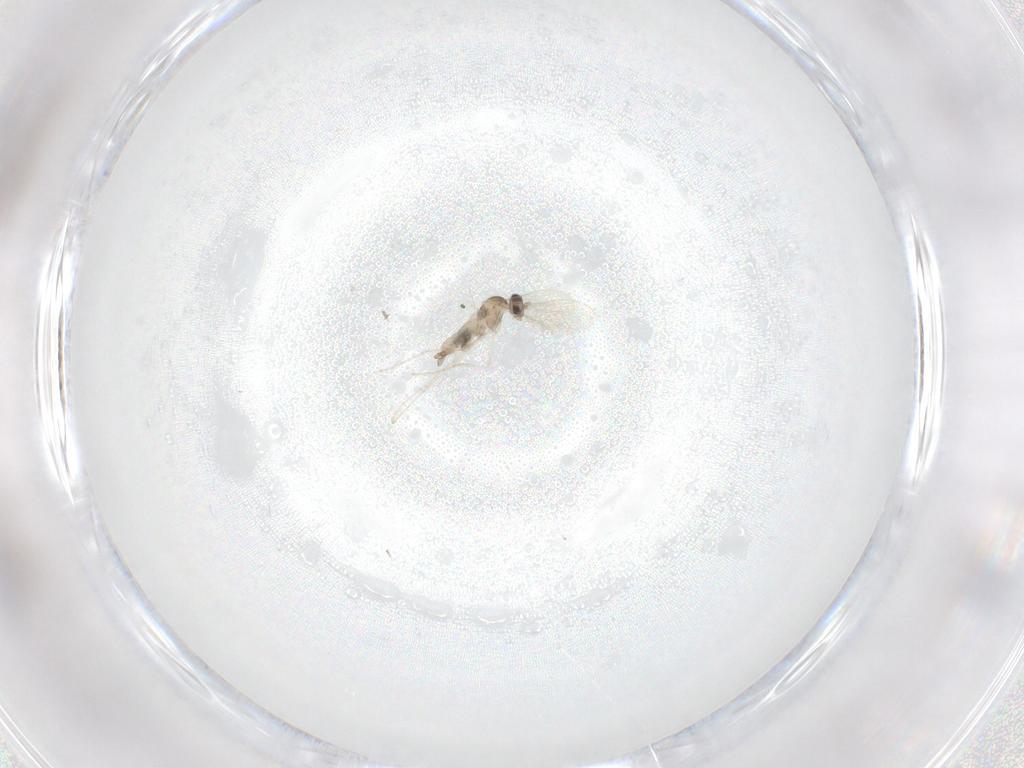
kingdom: Animalia
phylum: Arthropoda
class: Insecta
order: Diptera
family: Cecidomyiidae
